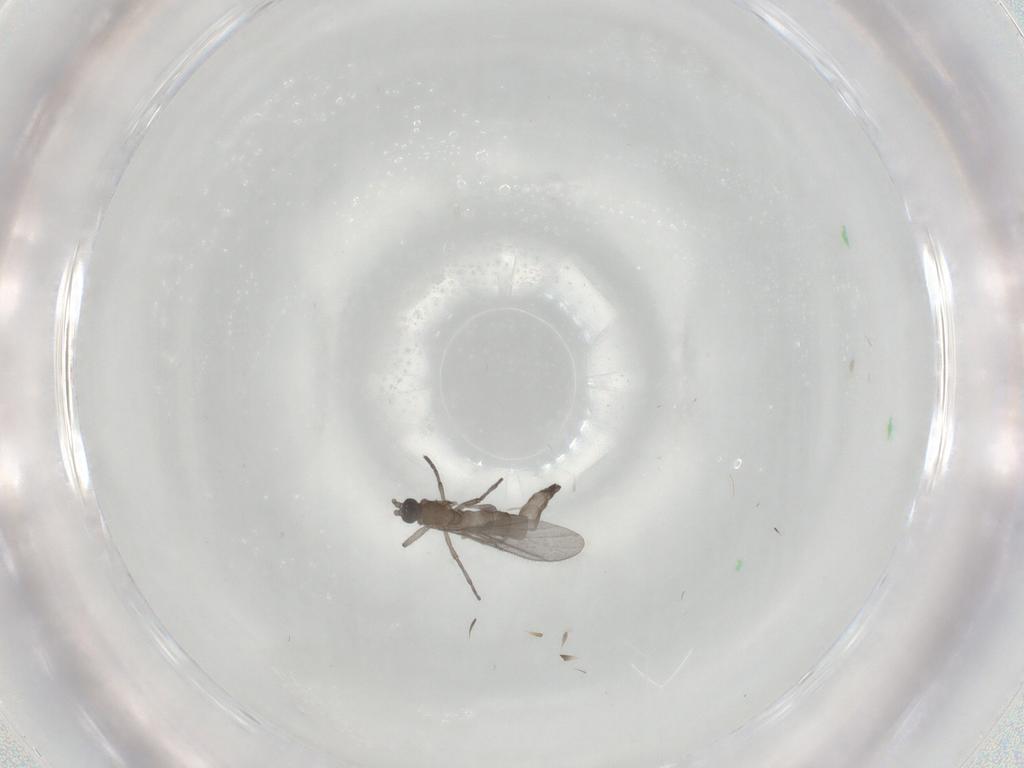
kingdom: Animalia
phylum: Arthropoda
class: Insecta
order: Diptera
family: Sciaridae
